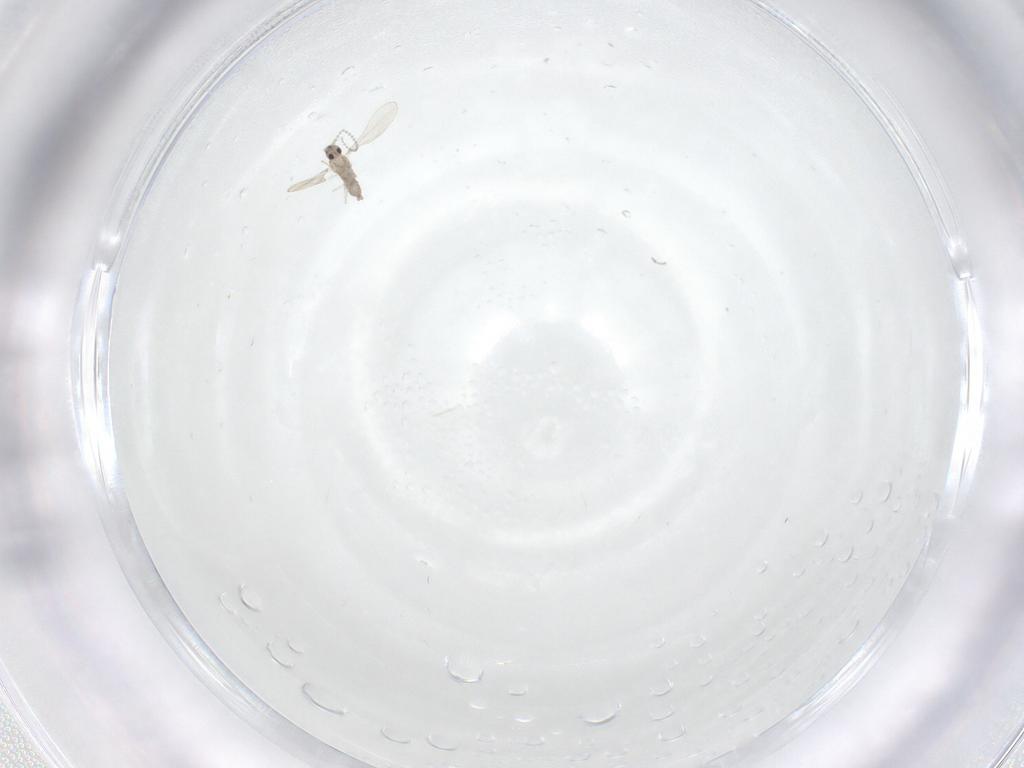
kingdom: Animalia
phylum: Arthropoda
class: Insecta
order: Diptera
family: Cecidomyiidae
